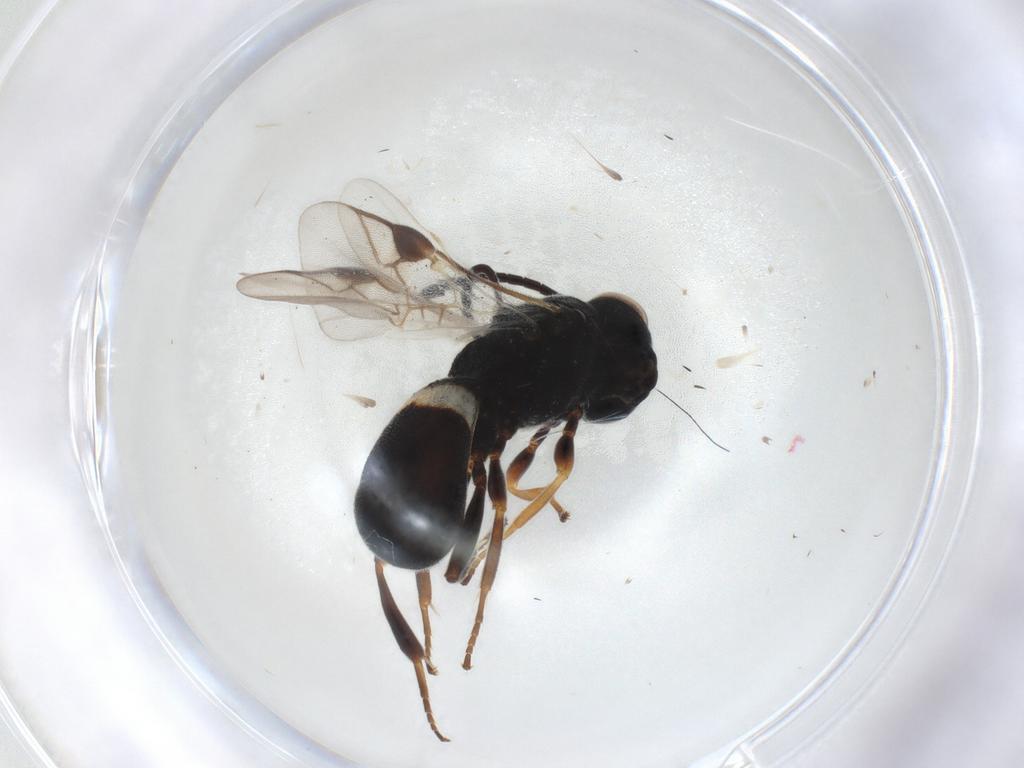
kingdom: Animalia
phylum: Arthropoda
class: Insecta
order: Hymenoptera
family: Braconidae
